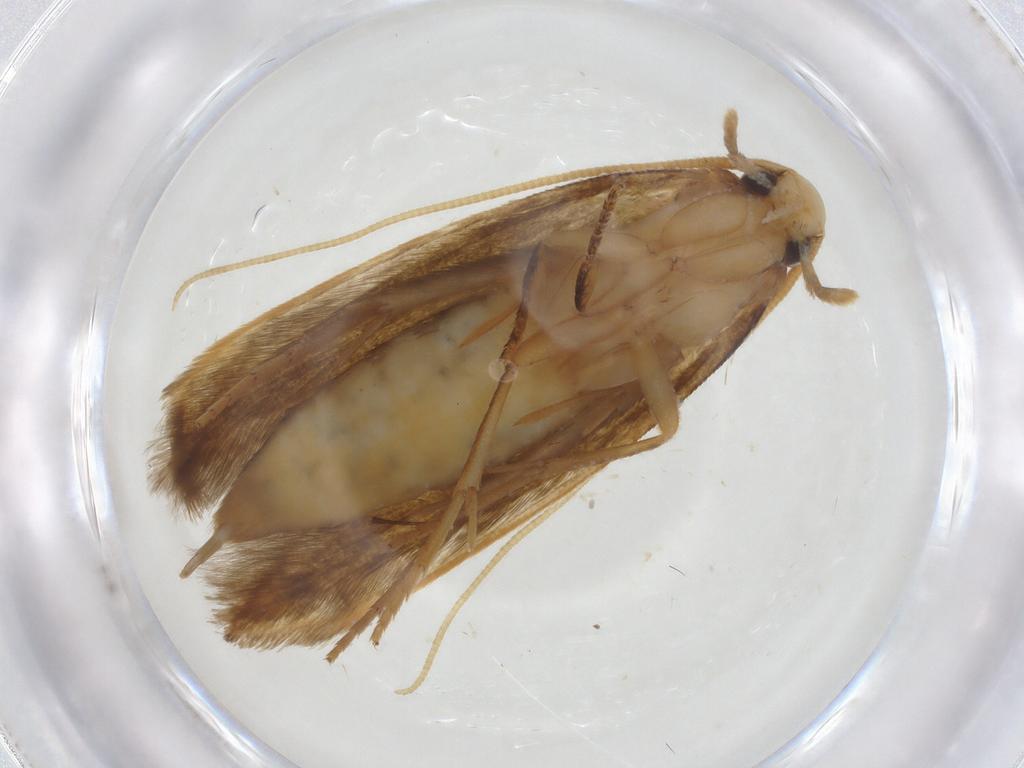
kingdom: Animalia
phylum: Arthropoda
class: Insecta
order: Lepidoptera
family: Tineidae
